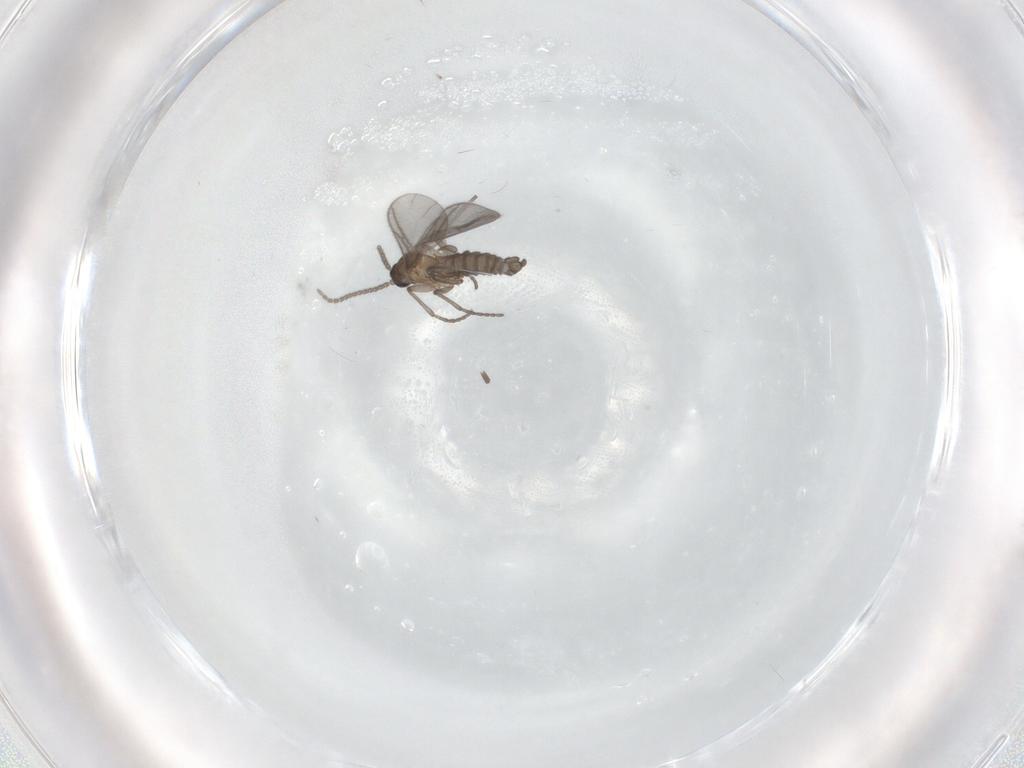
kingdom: Animalia
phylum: Arthropoda
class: Insecta
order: Diptera
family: Sciaridae
